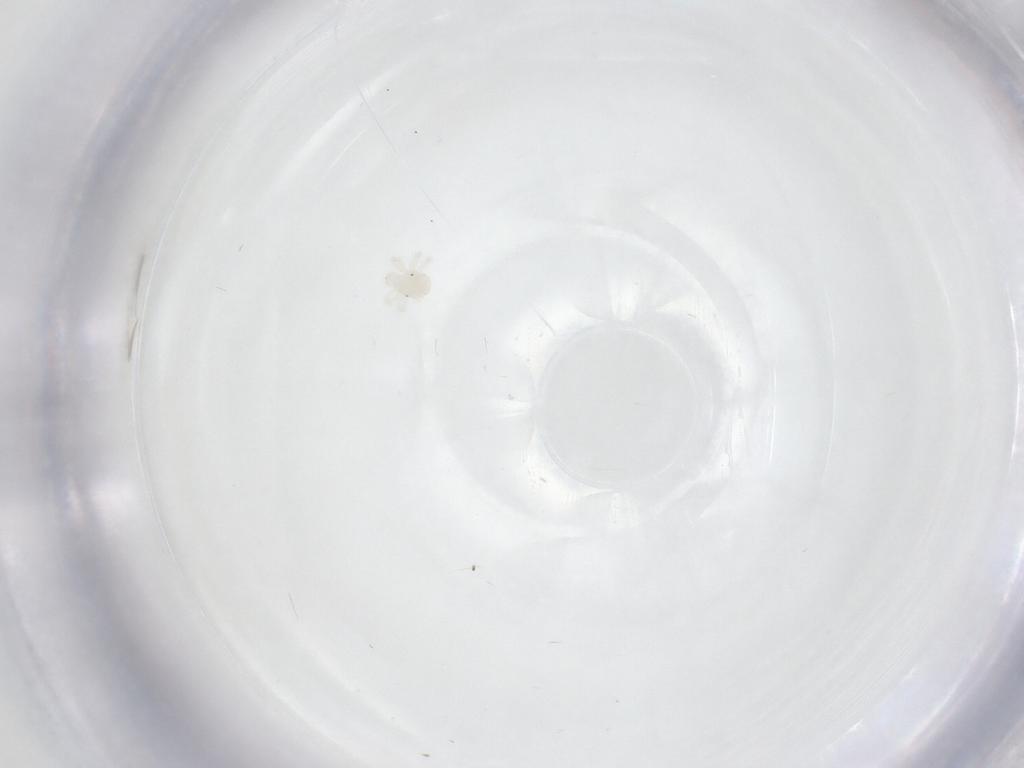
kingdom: Animalia
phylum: Arthropoda
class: Arachnida
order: Trombidiformes
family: Anystidae
